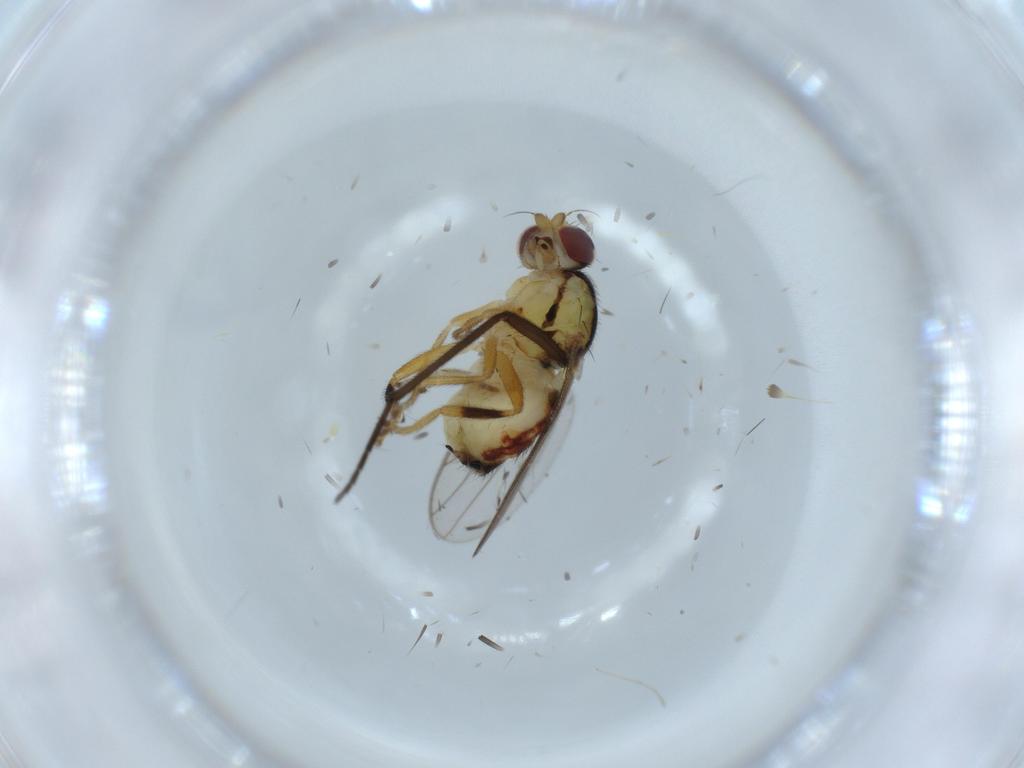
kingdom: Animalia
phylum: Arthropoda
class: Insecta
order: Diptera
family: Chloropidae
